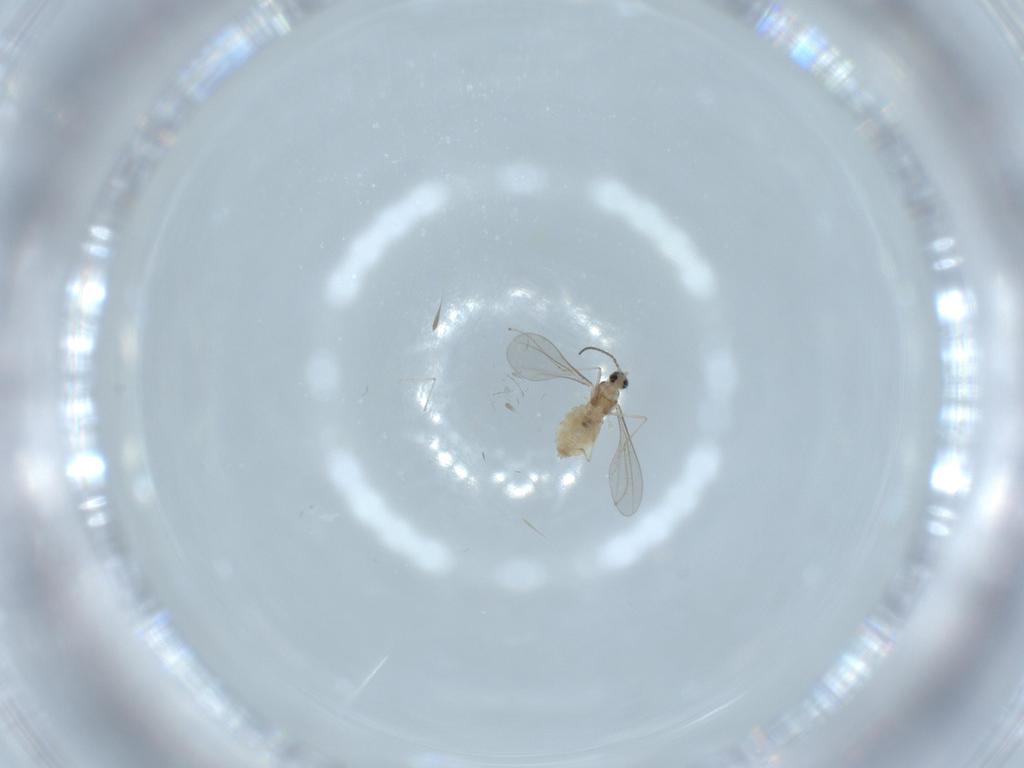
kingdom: Animalia
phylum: Arthropoda
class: Insecta
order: Diptera
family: Cecidomyiidae
